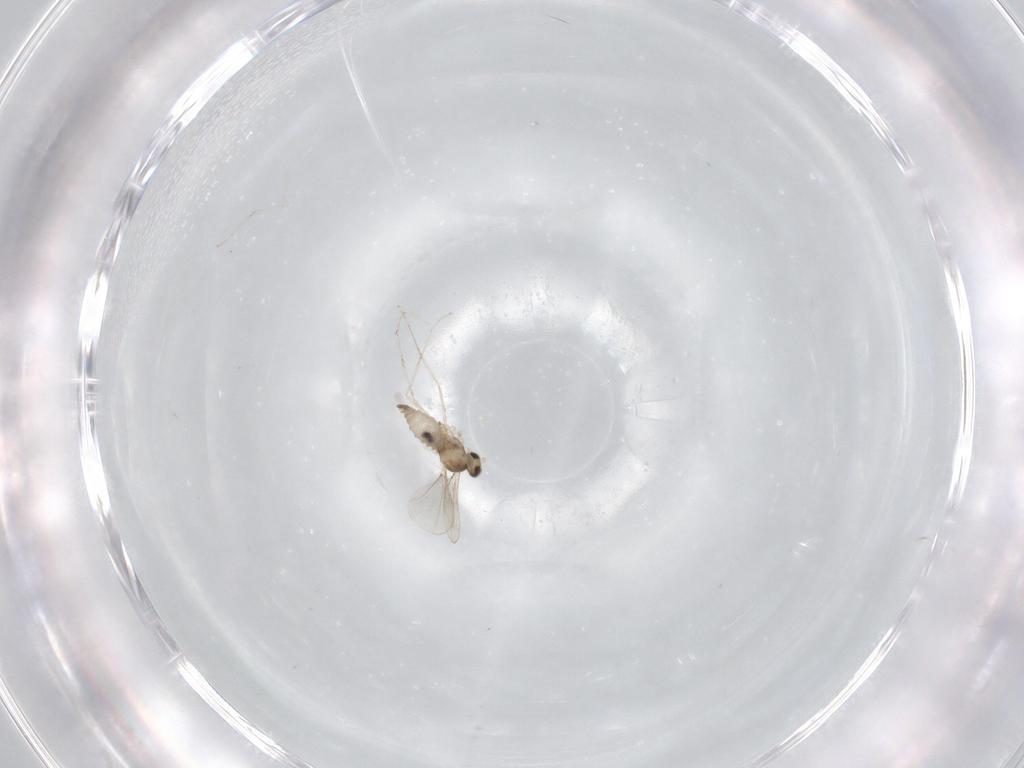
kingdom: Animalia
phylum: Arthropoda
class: Insecta
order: Diptera
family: Cecidomyiidae
